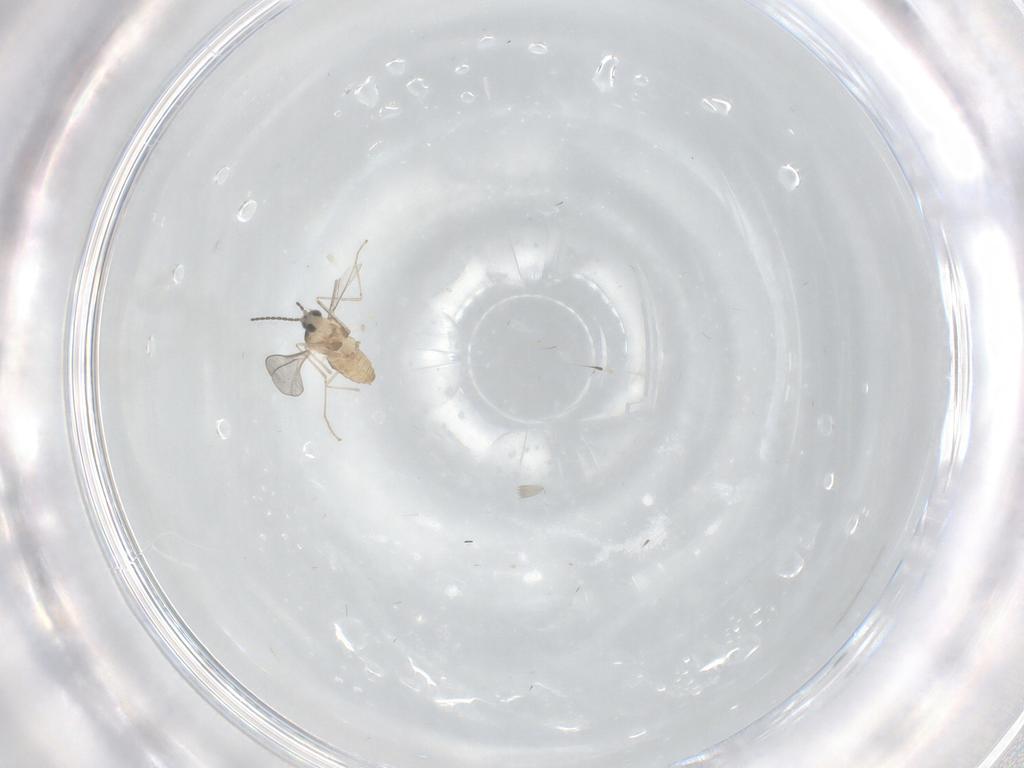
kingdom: Animalia
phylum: Arthropoda
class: Insecta
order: Diptera
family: Cecidomyiidae
